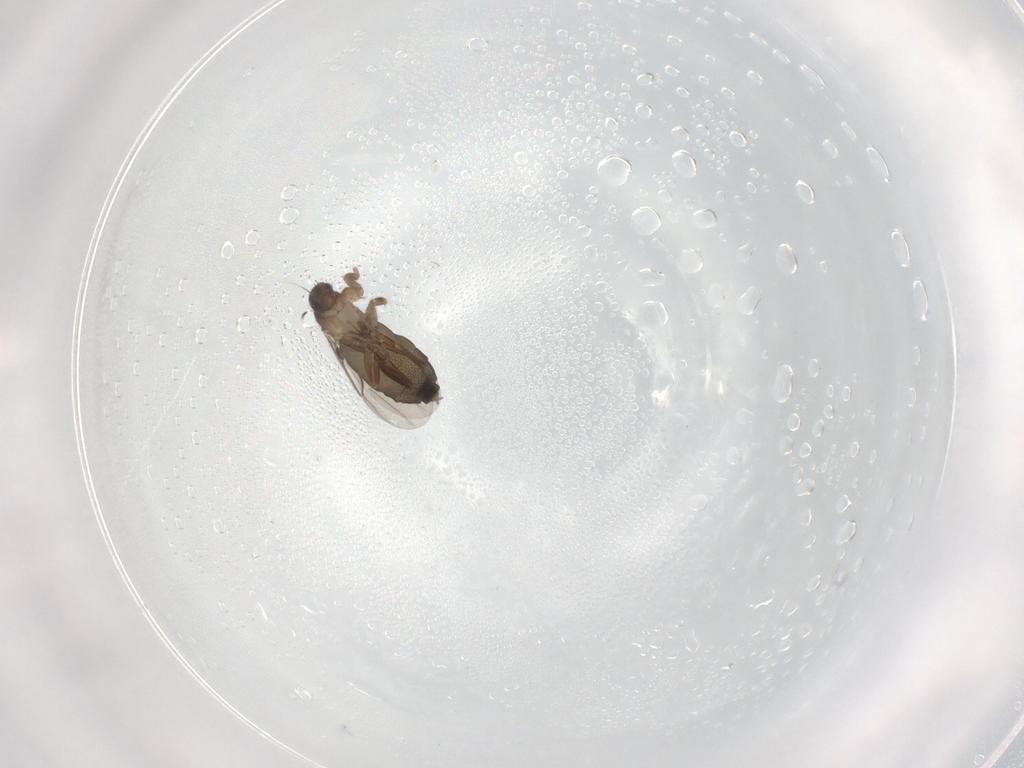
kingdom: Animalia
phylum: Arthropoda
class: Insecta
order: Diptera
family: Phoridae
